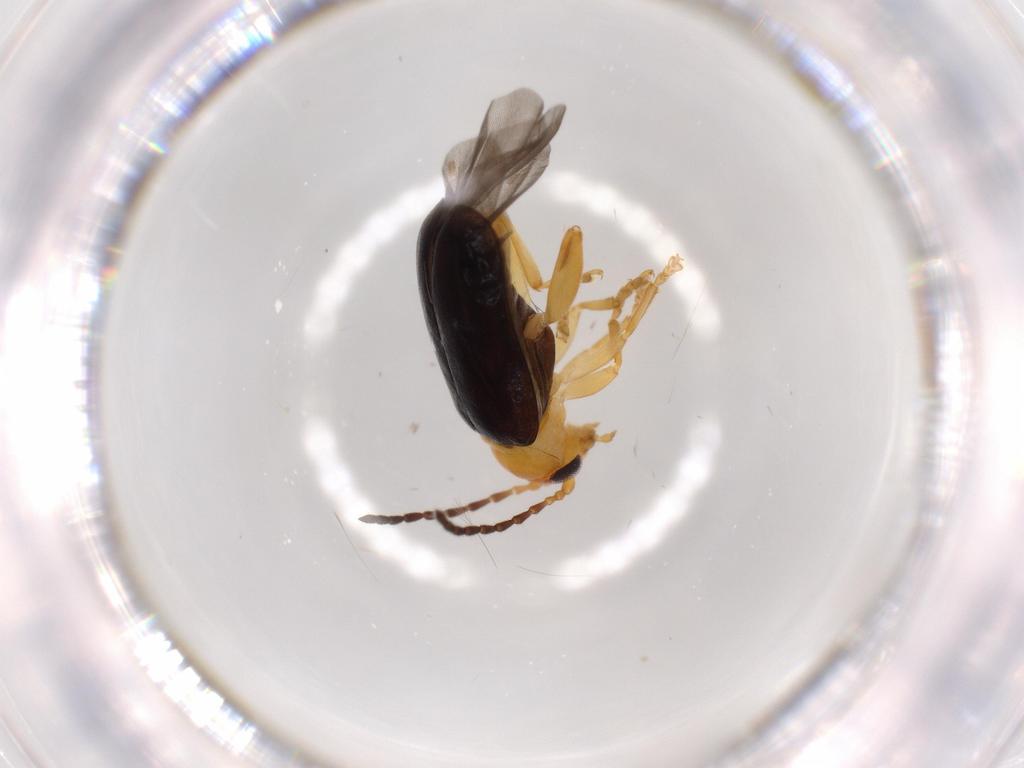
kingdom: Animalia
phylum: Arthropoda
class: Insecta
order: Coleoptera
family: Chrysomelidae
